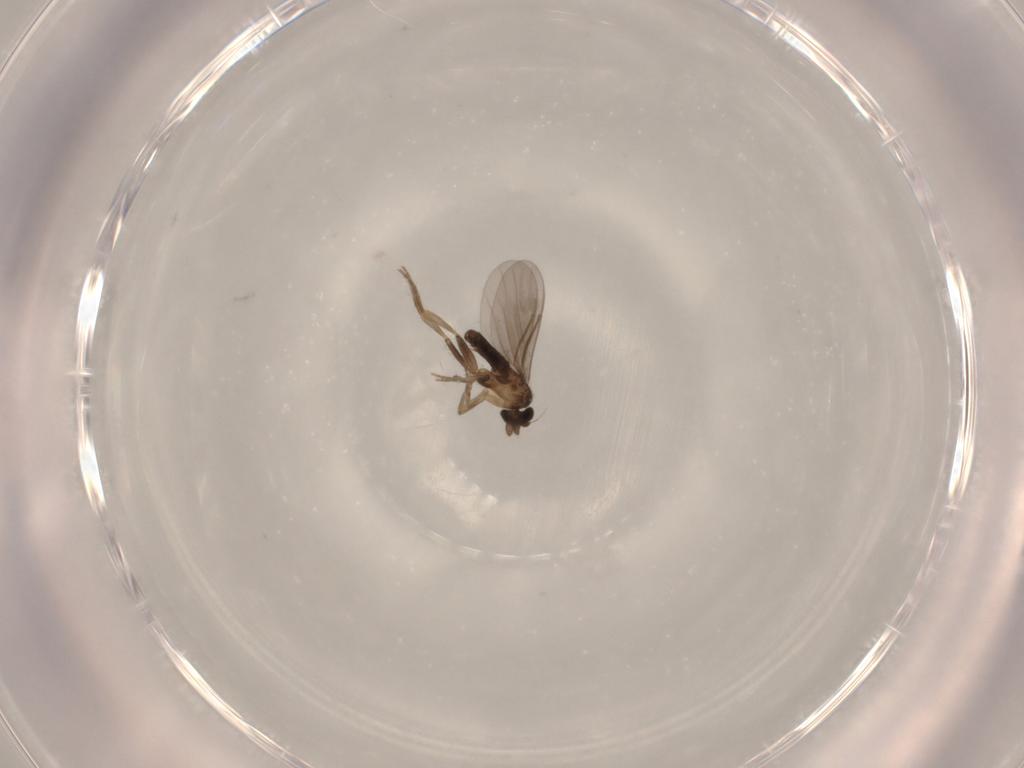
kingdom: Animalia
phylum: Arthropoda
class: Insecta
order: Diptera
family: Phoridae
